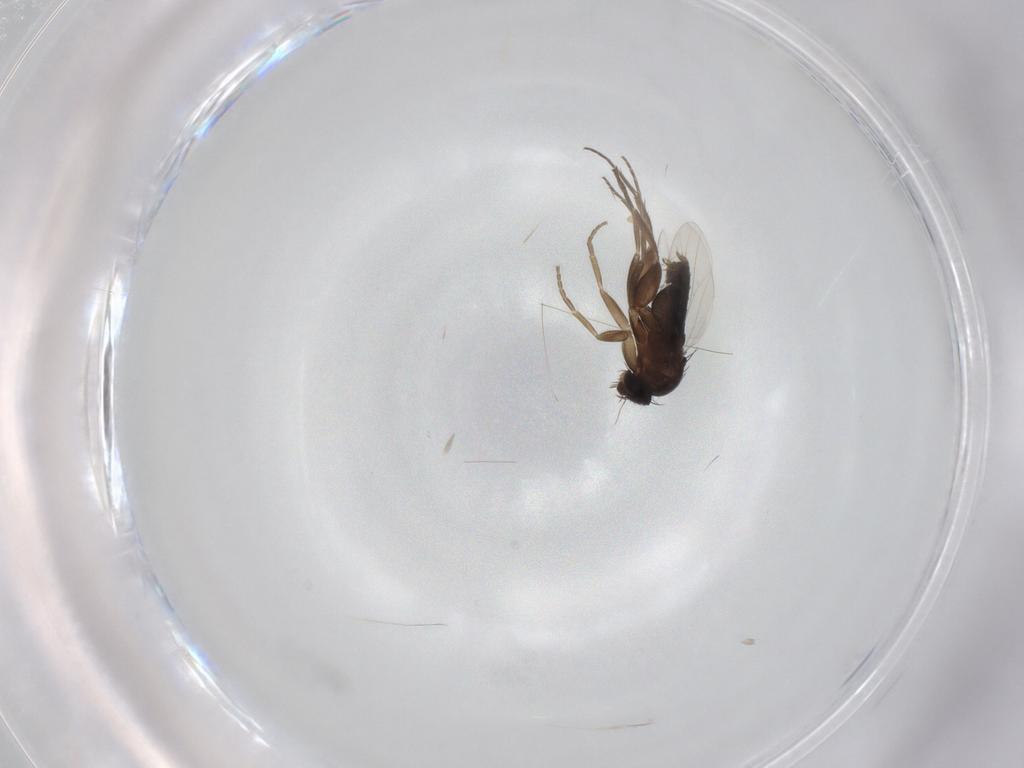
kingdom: Animalia
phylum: Arthropoda
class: Insecta
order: Diptera
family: Phoridae
